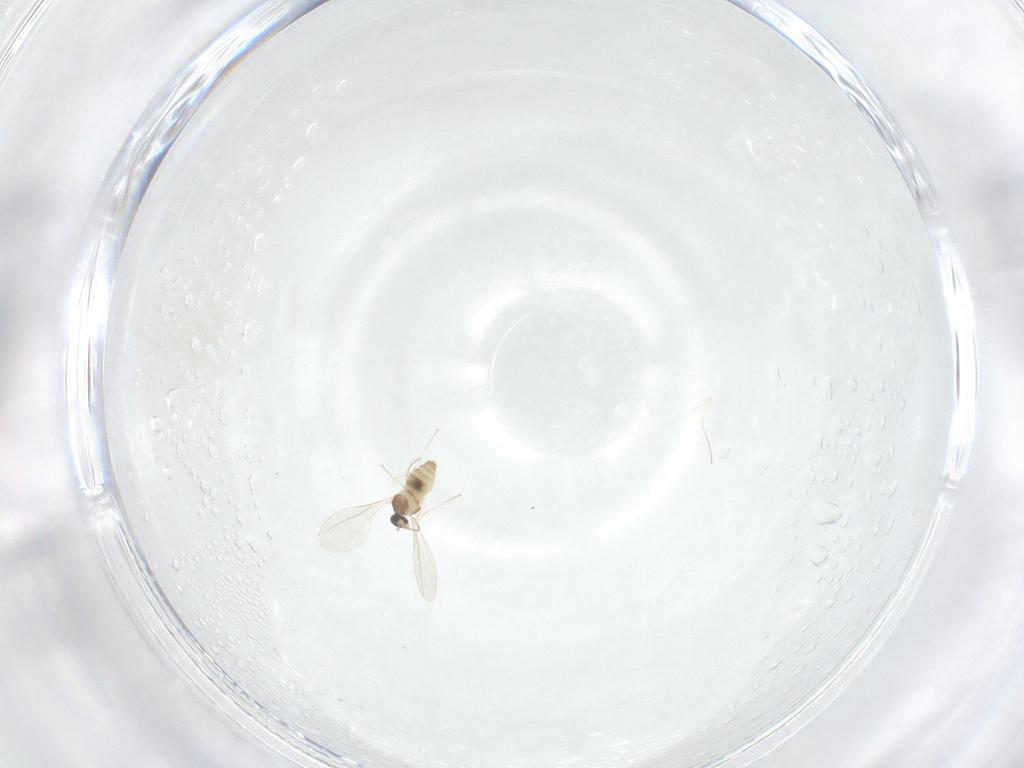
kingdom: Animalia
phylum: Arthropoda
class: Insecta
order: Diptera
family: Cecidomyiidae
